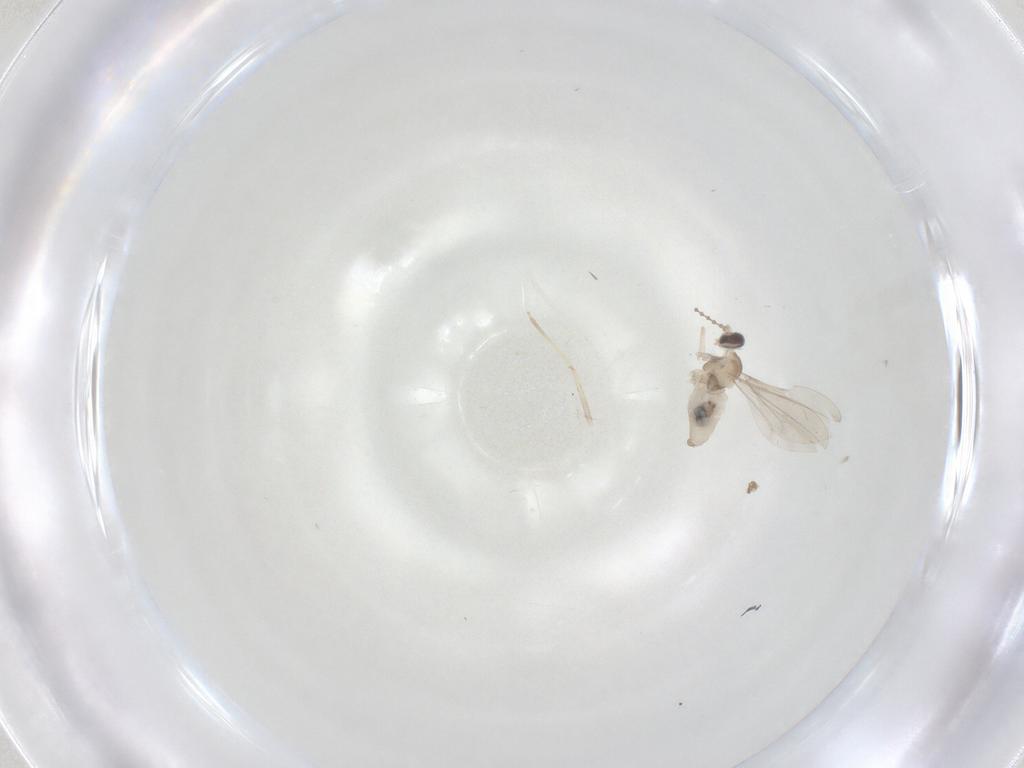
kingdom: Animalia
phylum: Arthropoda
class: Insecta
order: Diptera
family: Cecidomyiidae
